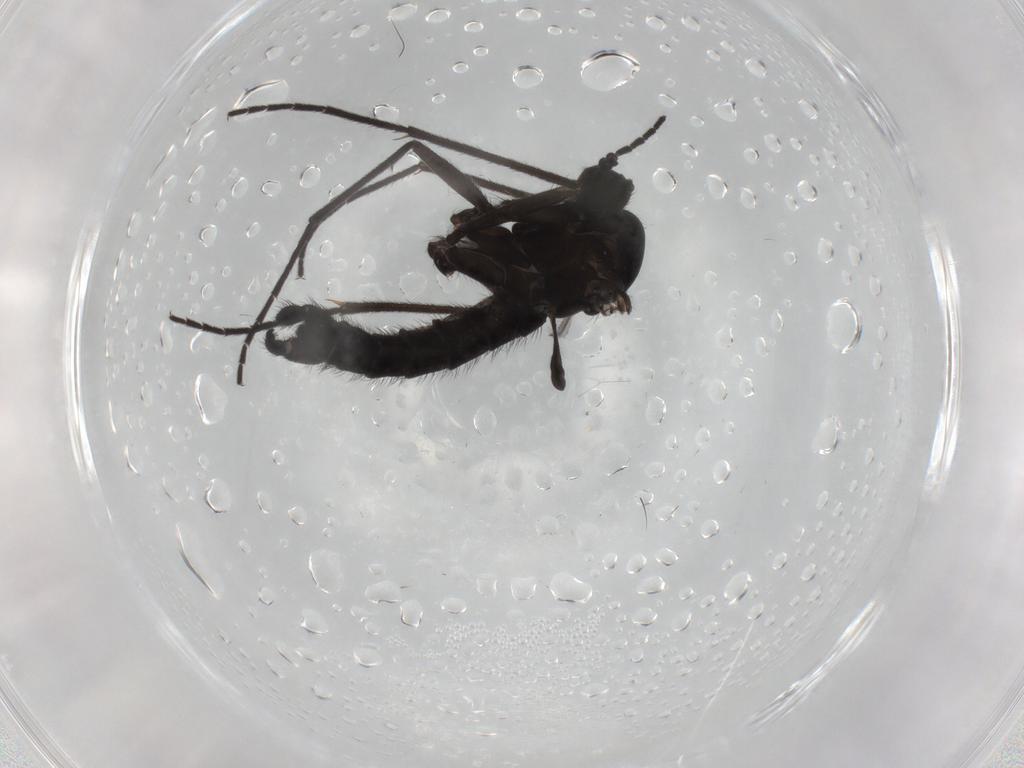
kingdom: Animalia
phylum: Arthropoda
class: Insecta
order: Diptera
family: Sciaridae
